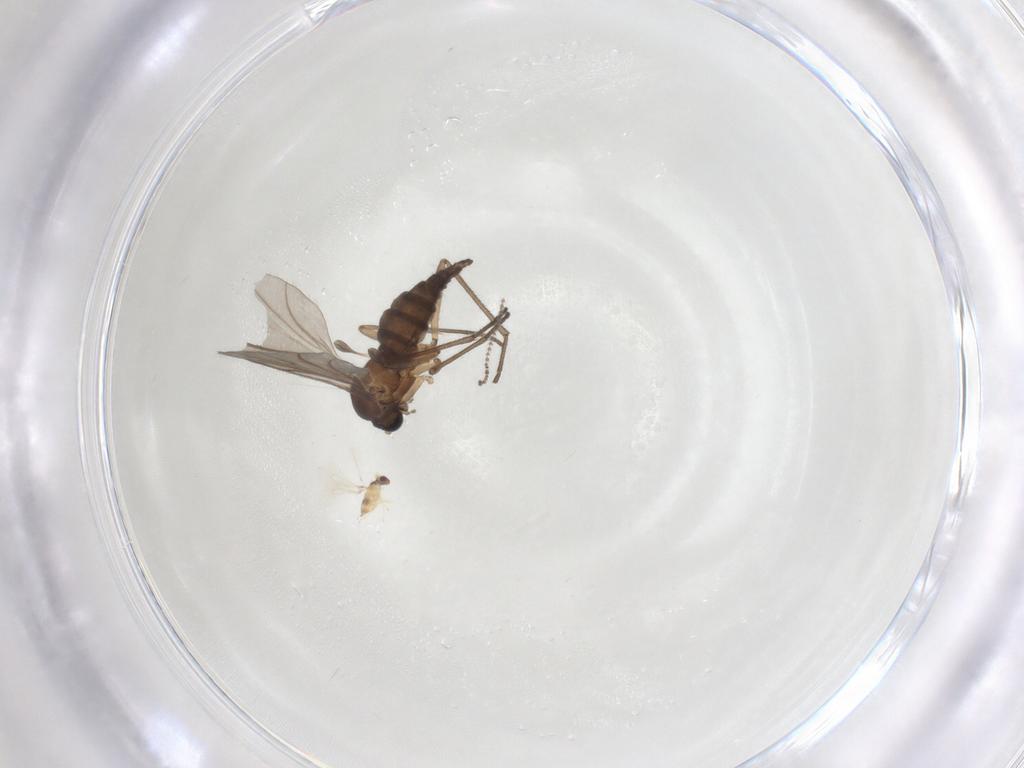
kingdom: Animalia
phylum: Arthropoda
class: Insecta
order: Diptera
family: Sciaridae
